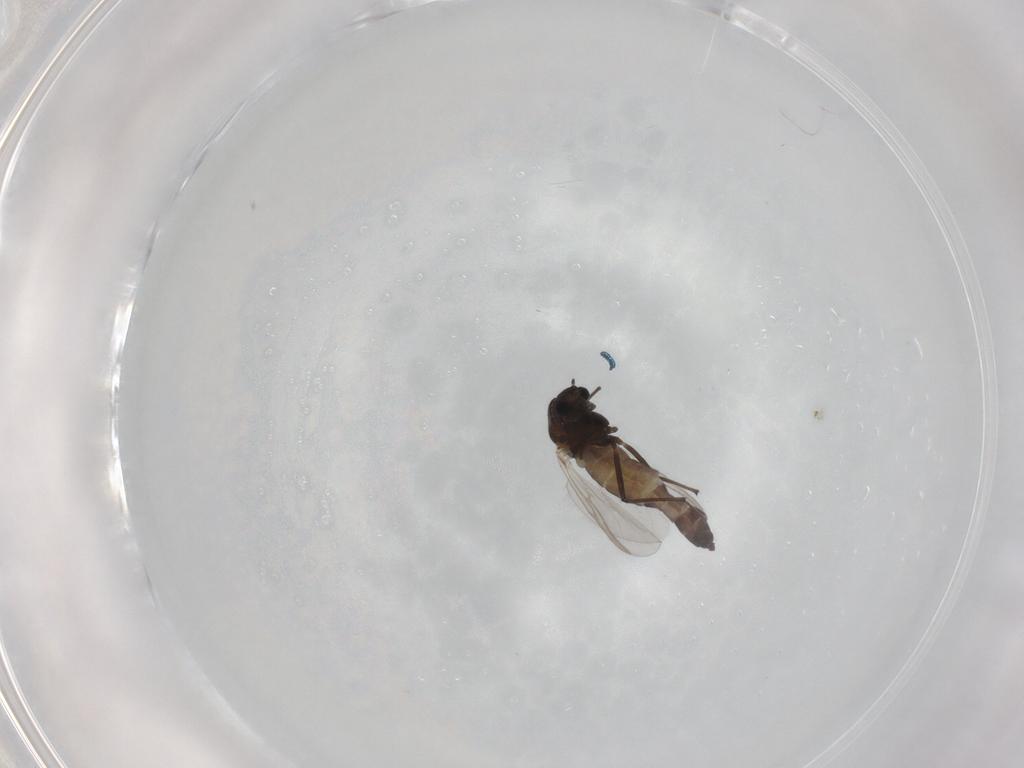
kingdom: Animalia
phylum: Arthropoda
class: Insecta
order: Diptera
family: Chironomidae
